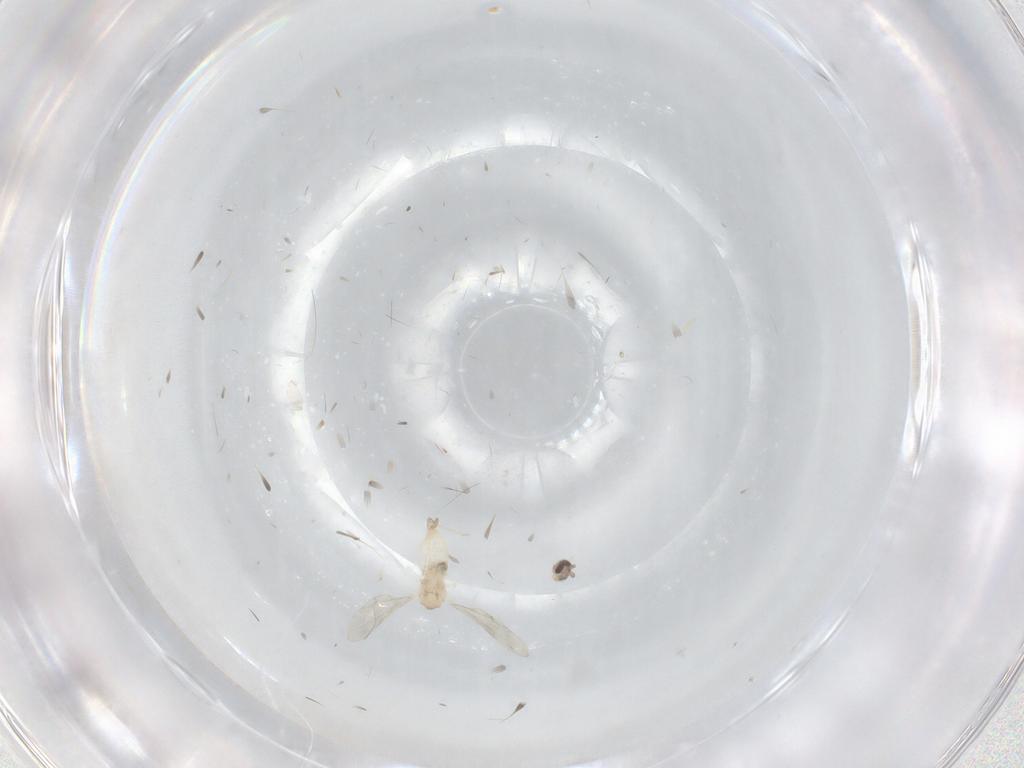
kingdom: Animalia
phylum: Arthropoda
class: Insecta
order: Diptera
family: Cecidomyiidae
